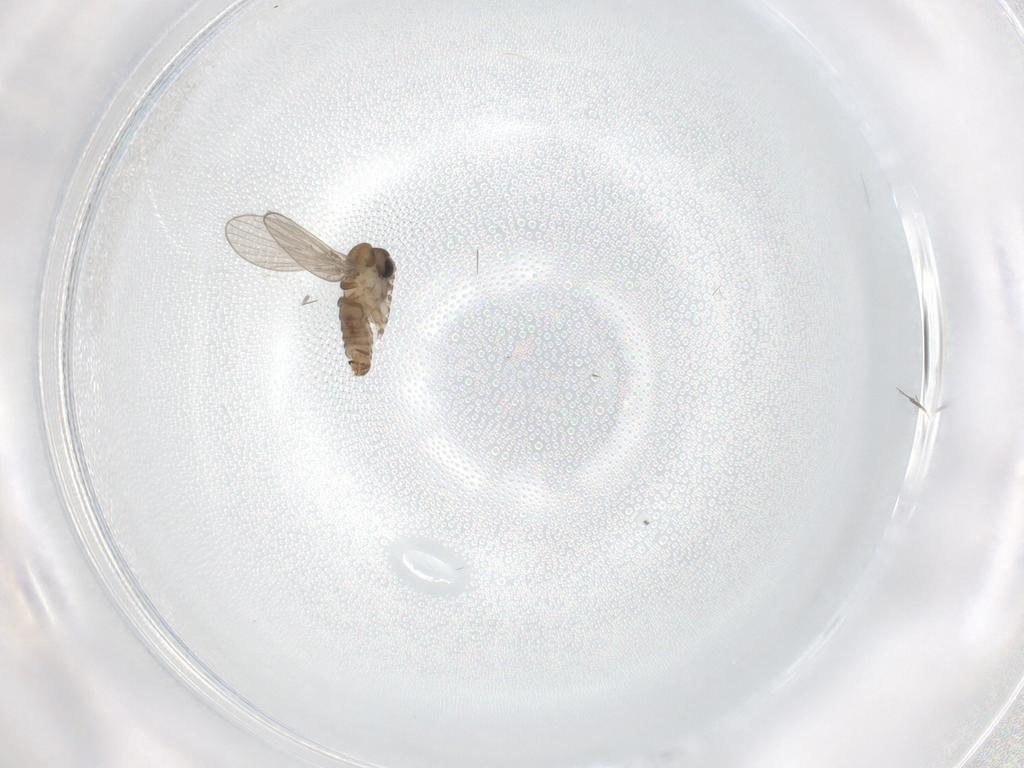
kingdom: Animalia
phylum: Arthropoda
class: Insecta
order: Diptera
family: Psychodidae
